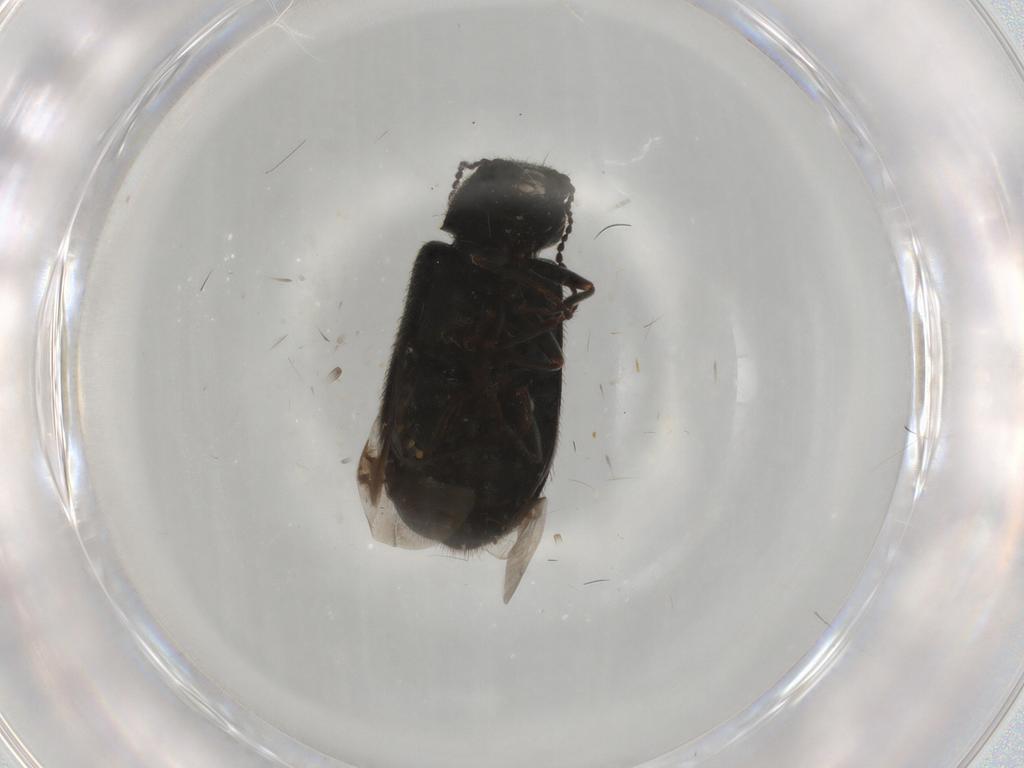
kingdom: Animalia
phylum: Arthropoda
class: Insecta
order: Coleoptera
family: Melyridae
